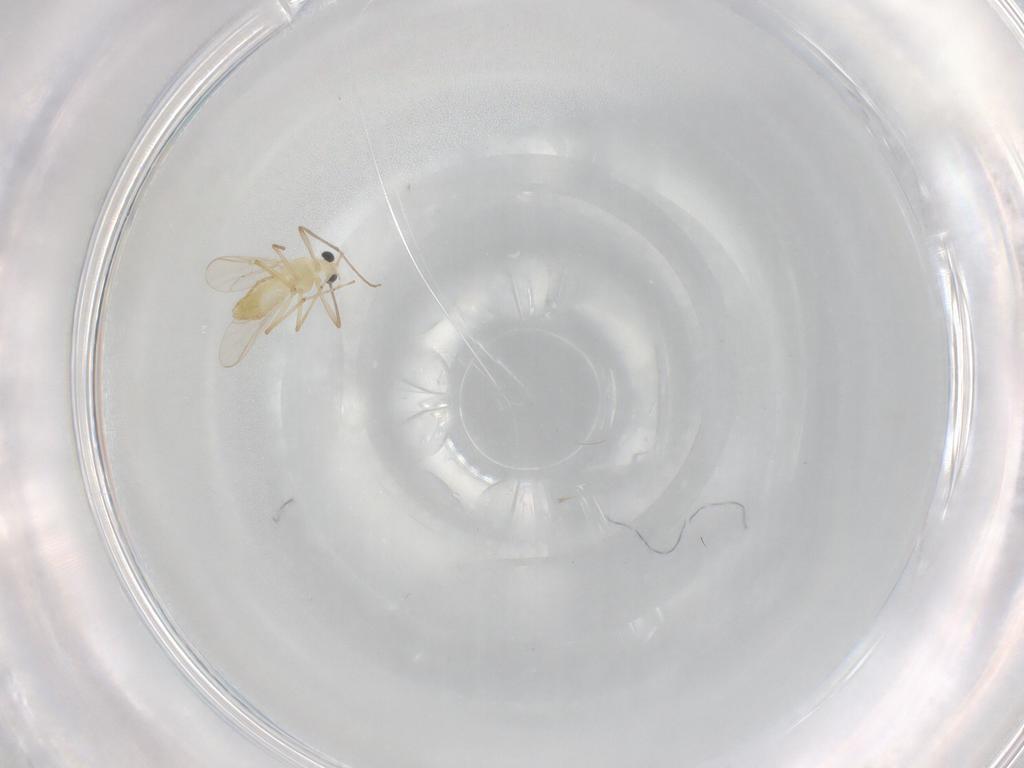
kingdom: Animalia
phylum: Arthropoda
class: Insecta
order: Diptera
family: Chironomidae
